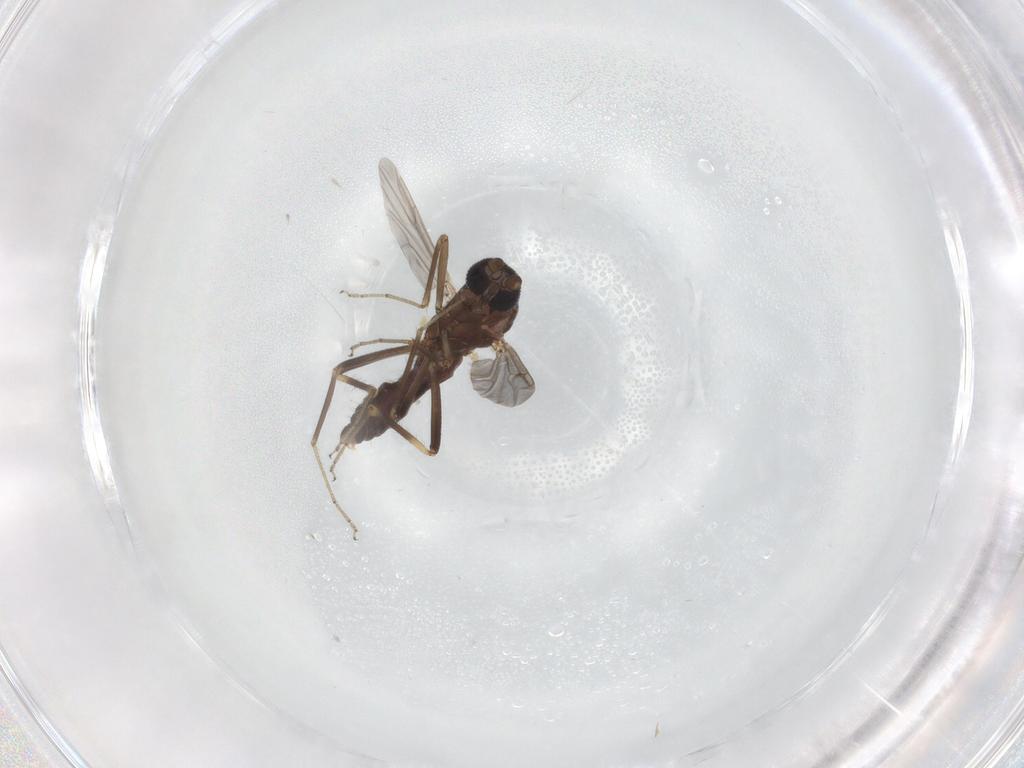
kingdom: Animalia
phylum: Arthropoda
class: Insecta
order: Diptera
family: Ceratopogonidae
